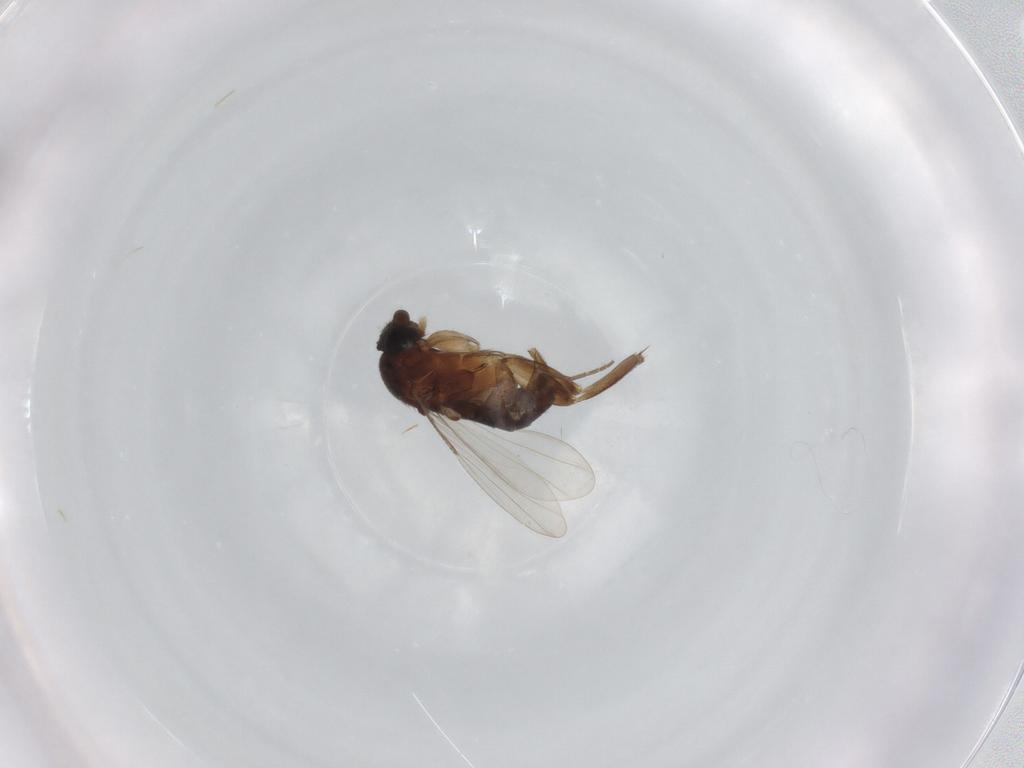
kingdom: Animalia
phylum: Arthropoda
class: Insecta
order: Diptera
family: Phoridae
